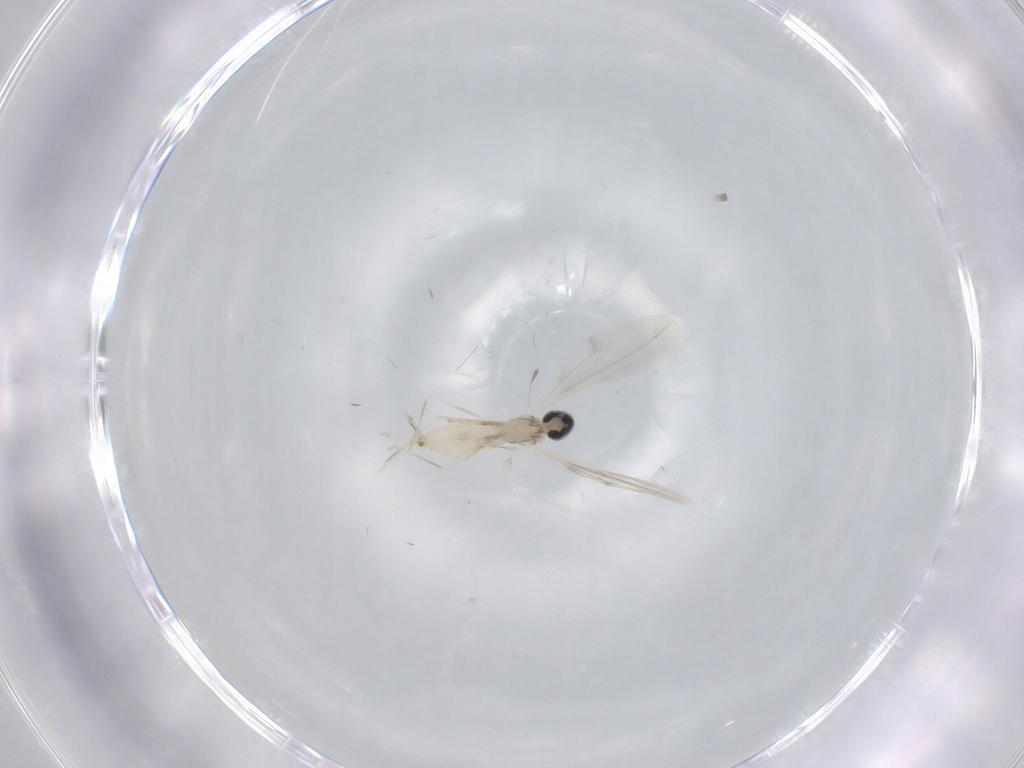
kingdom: Animalia
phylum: Arthropoda
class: Insecta
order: Diptera
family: Cecidomyiidae
